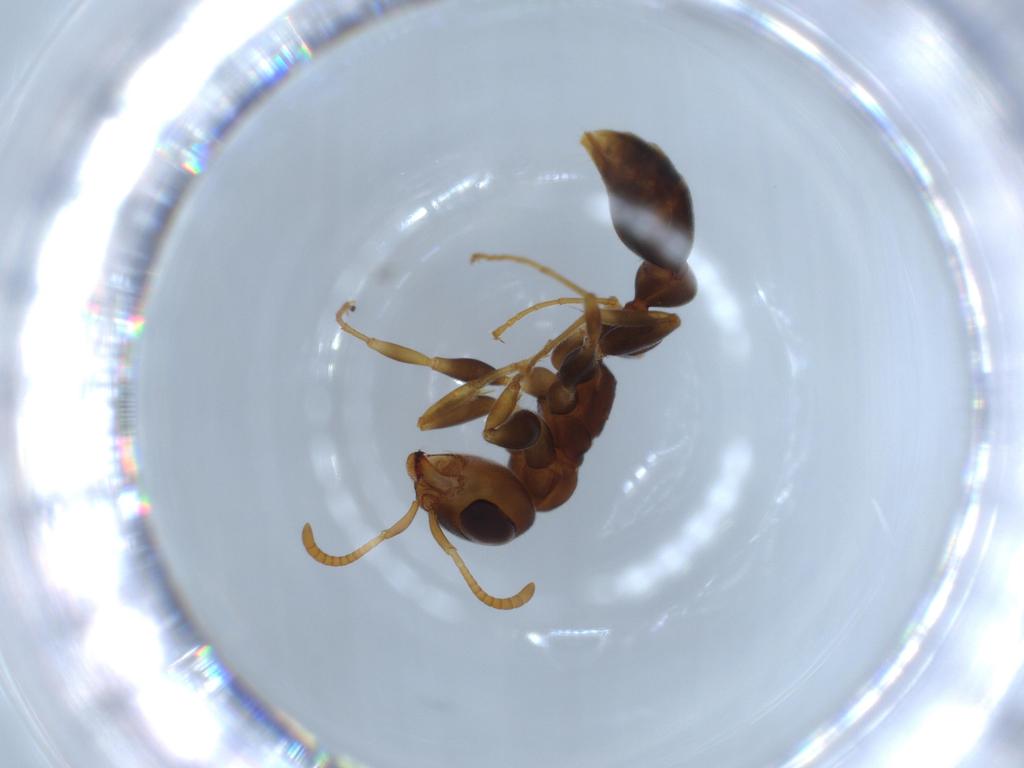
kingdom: Animalia
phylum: Arthropoda
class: Insecta
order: Hymenoptera
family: Formicidae
